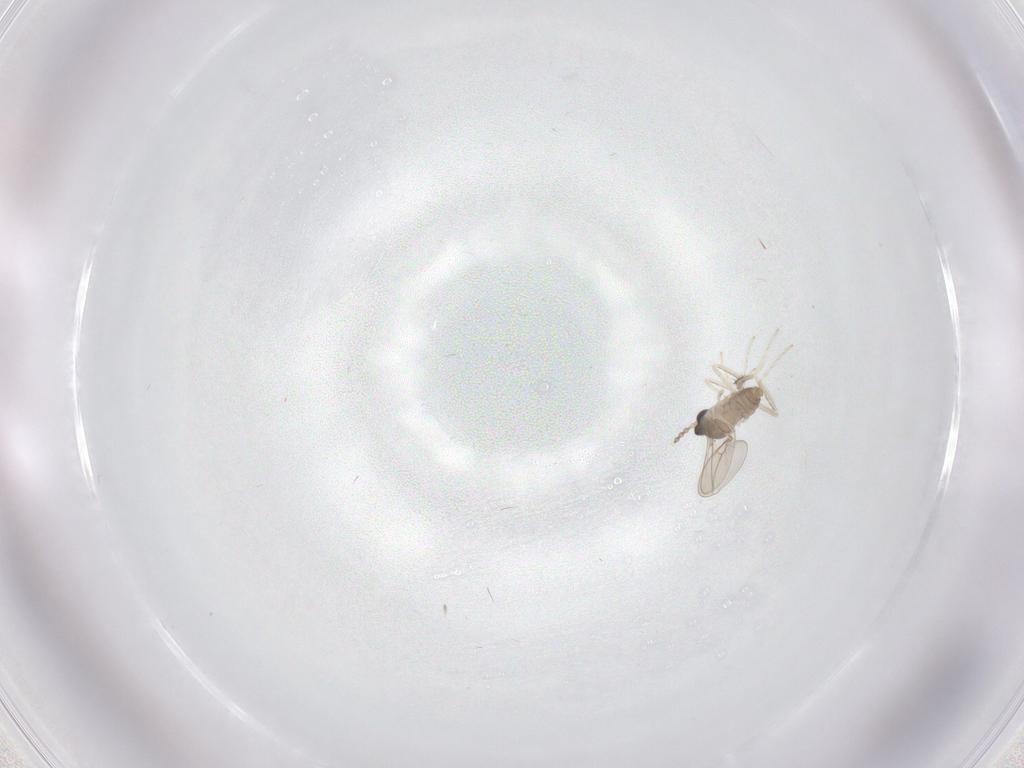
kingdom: Animalia
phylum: Arthropoda
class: Insecta
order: Diptera
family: Cecidomyiidae
